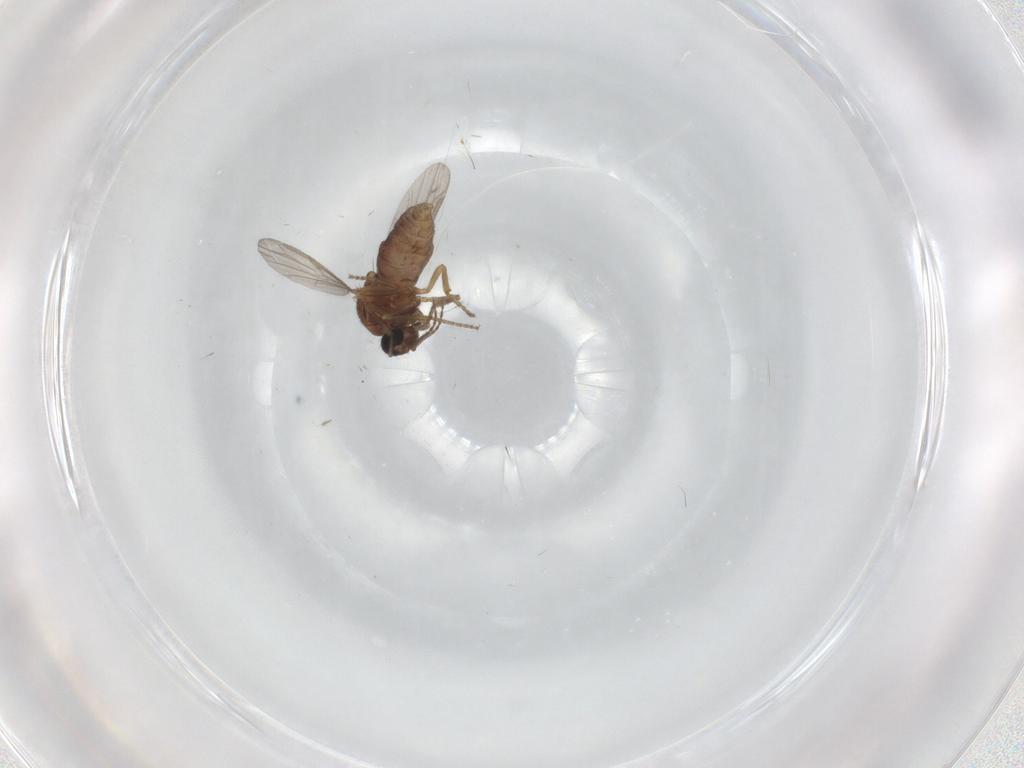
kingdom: Animalia
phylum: Arthropoda
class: Insecta
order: Diptera
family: Ceratopogonidae
